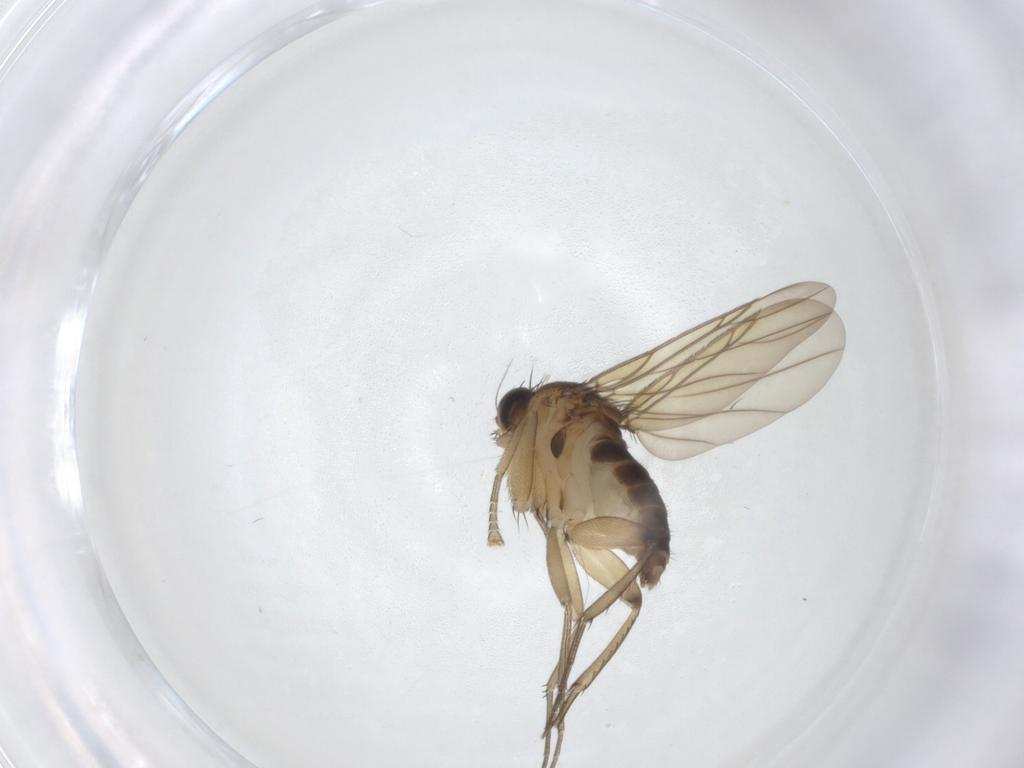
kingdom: Animalia
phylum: Arthropoda
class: Insecta
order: Diptera
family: Phoridae
